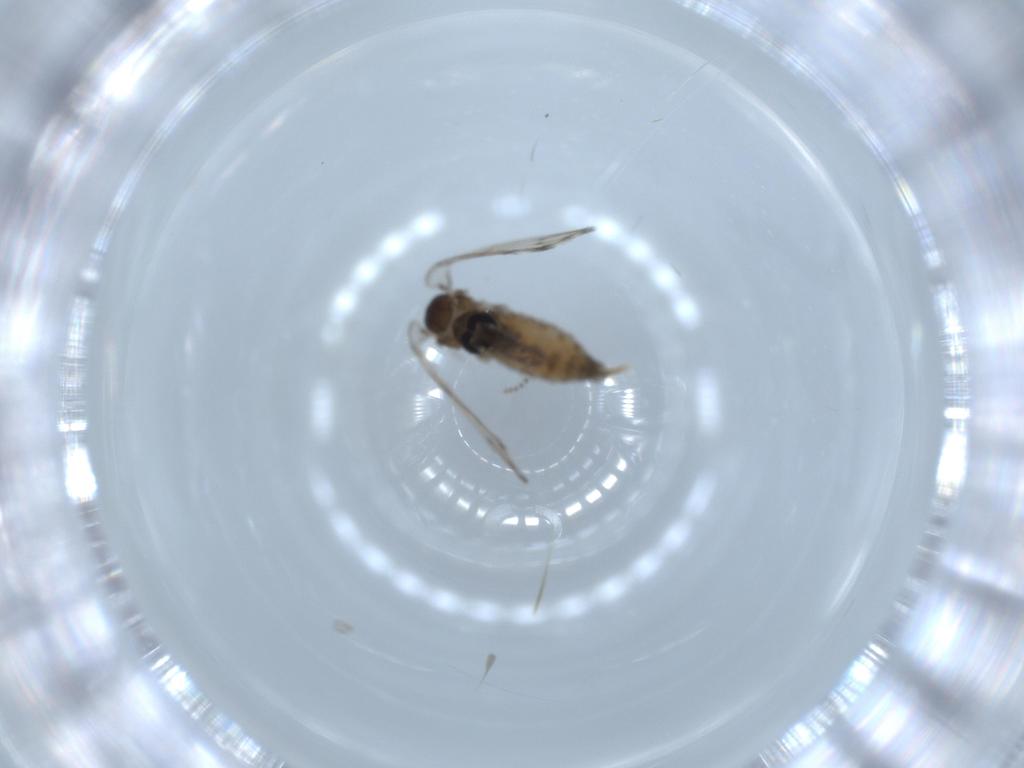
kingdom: Animalia
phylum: Arthropoda
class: Insecta
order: Diptera
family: Psychodidae
